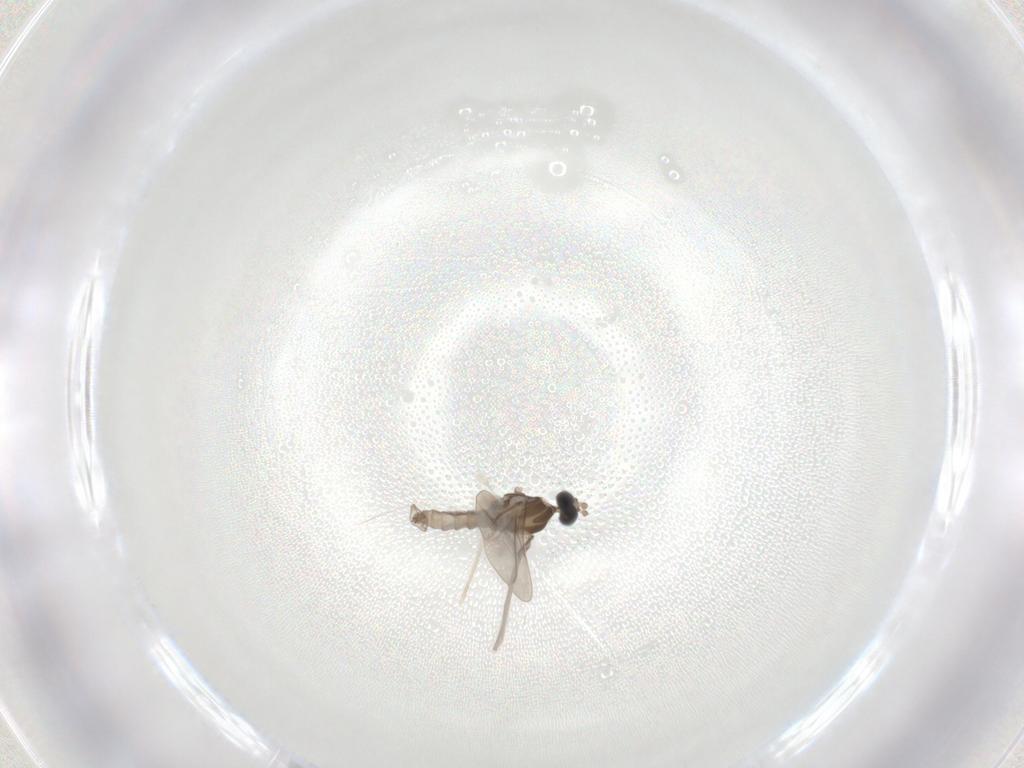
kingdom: Animalia
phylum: Arthropoda
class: Insecta
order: Diptera
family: Cecidomyiidae
